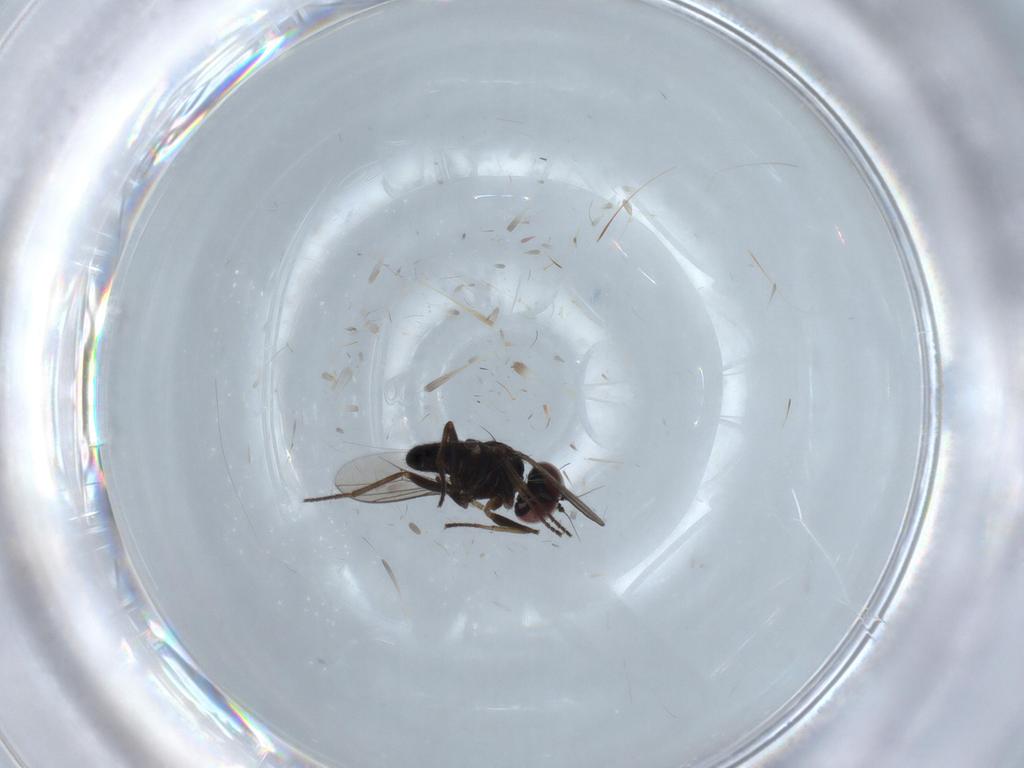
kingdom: Animalia
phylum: Arthropoda
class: Insecta
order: Diptera
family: Dolichopodidae
